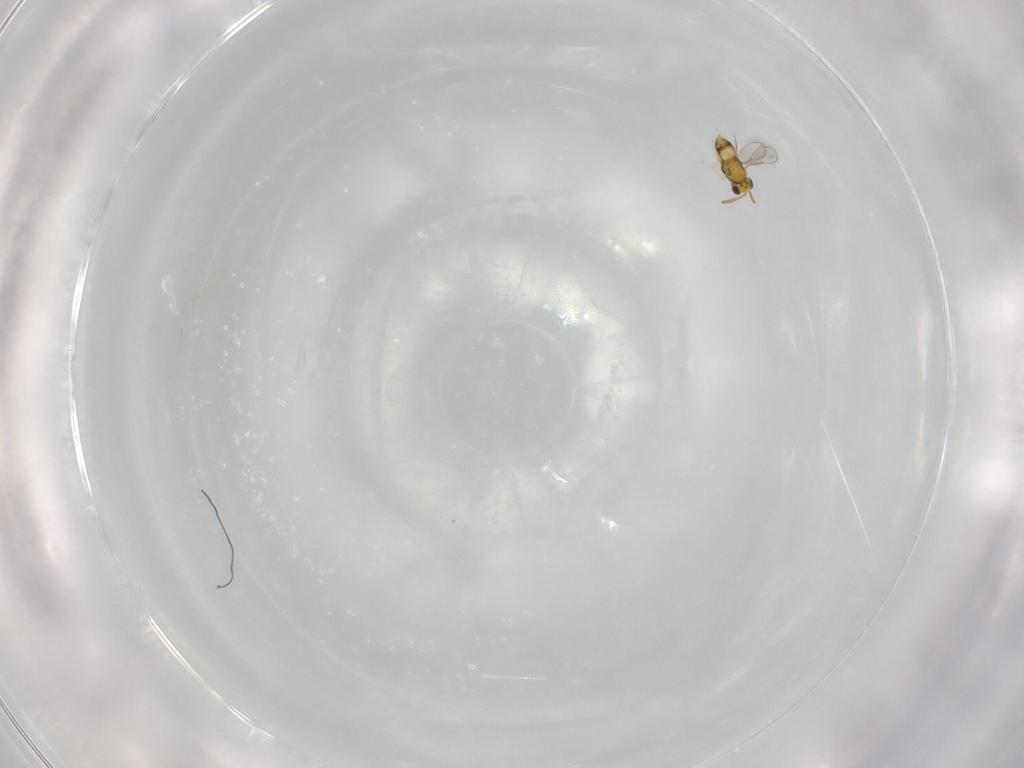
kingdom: Animalia
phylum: Arthropoda
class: Insecta
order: Hymenoptera
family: Aphelinidae
